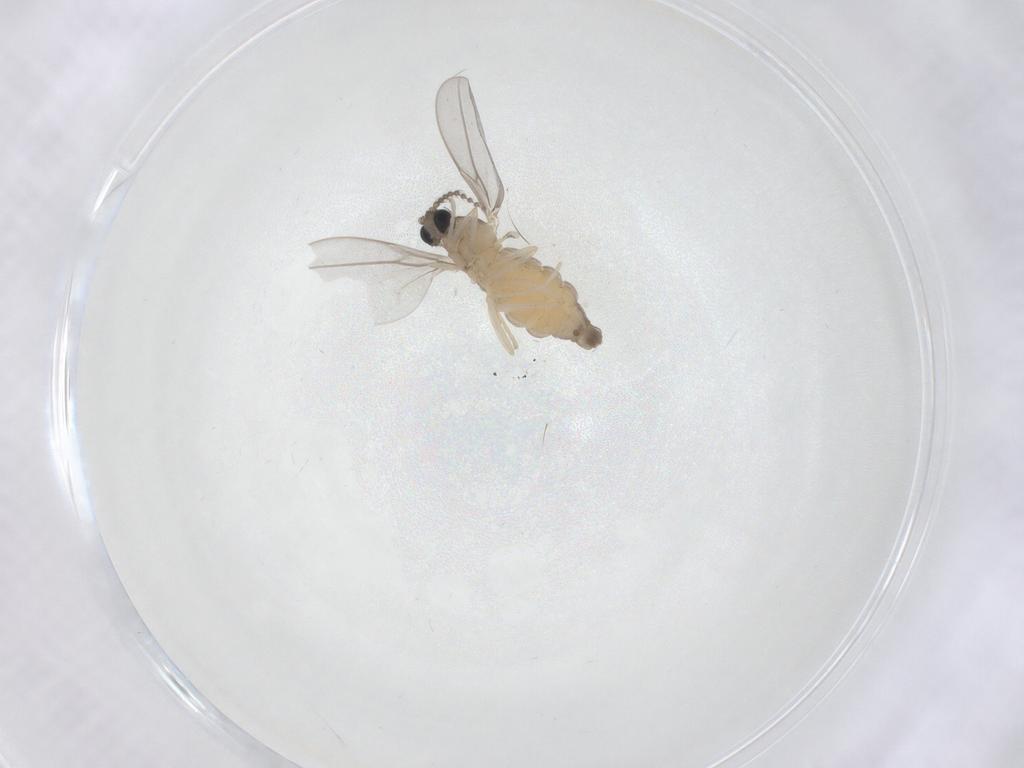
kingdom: Animalia
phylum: Arthropoda
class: Insecta
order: Diptera
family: Cecidomyiidae
